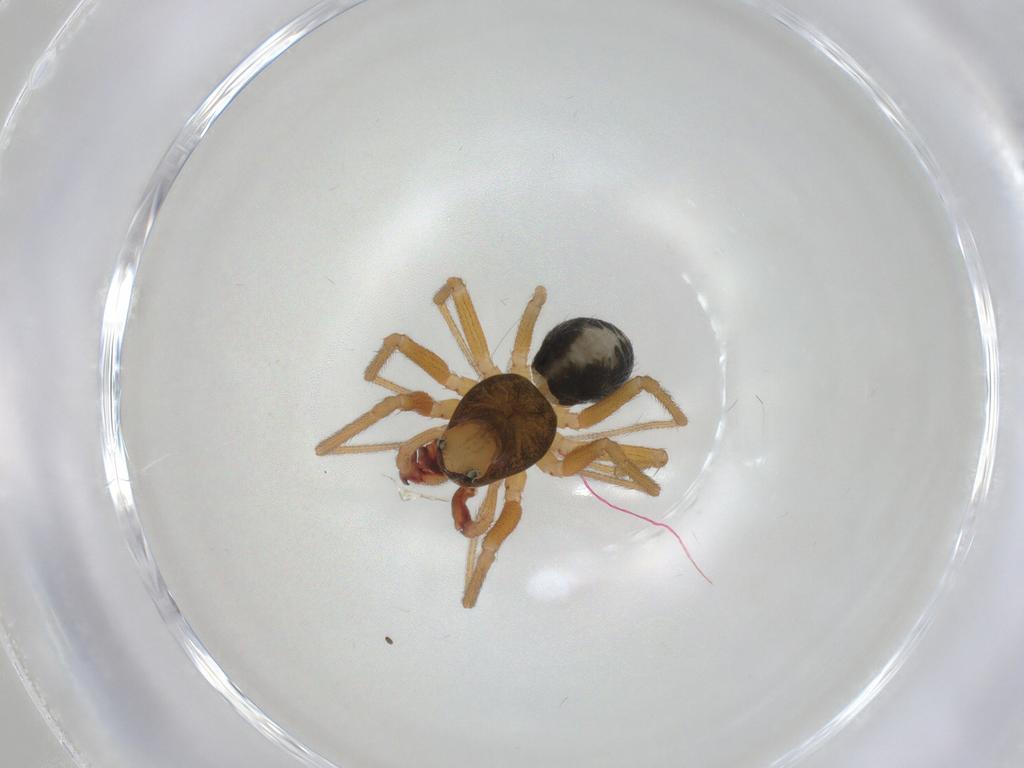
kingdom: Animalia
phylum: Arthropoda
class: Arachnida
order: Araneae
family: Linyphiidae
